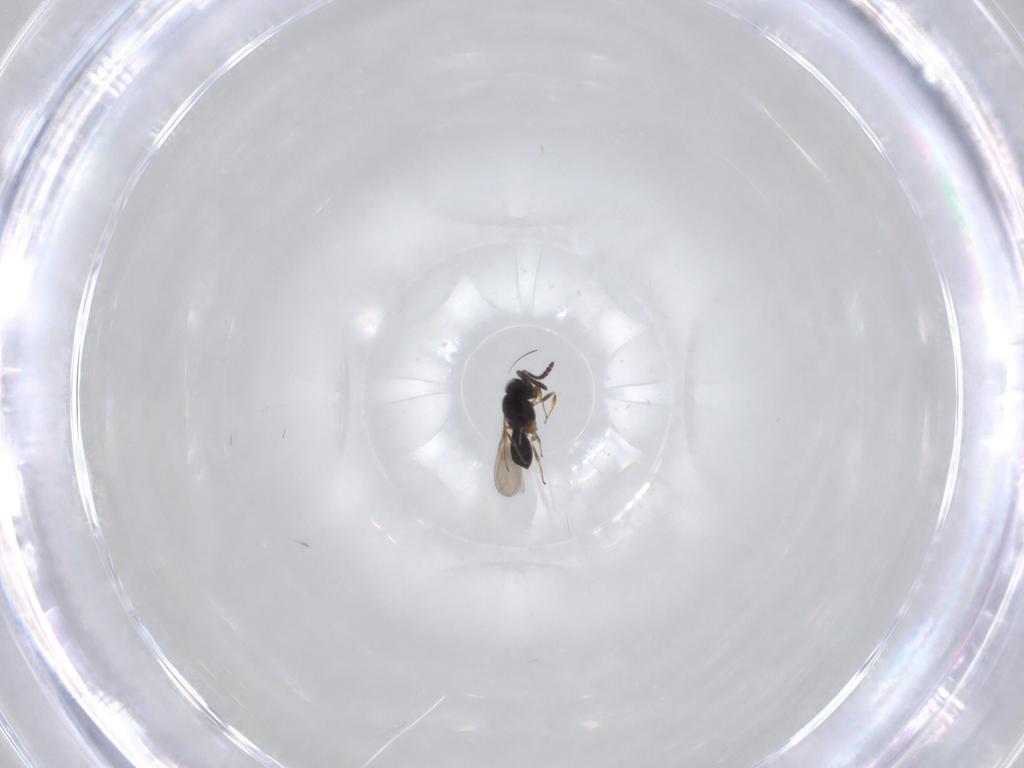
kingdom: Animalia
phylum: Arthropoda
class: Insecta
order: Hymenoptera
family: Scelionidae
